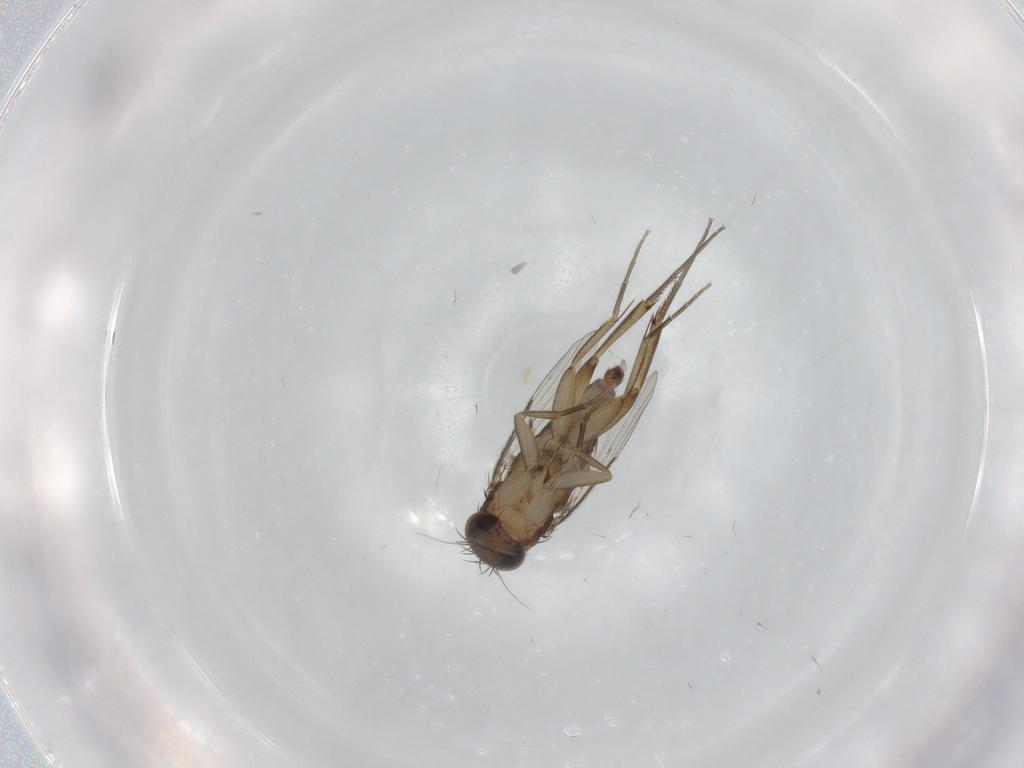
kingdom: Animalia
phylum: Arthropoda
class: Insecta
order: Diptera
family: Phoridae
